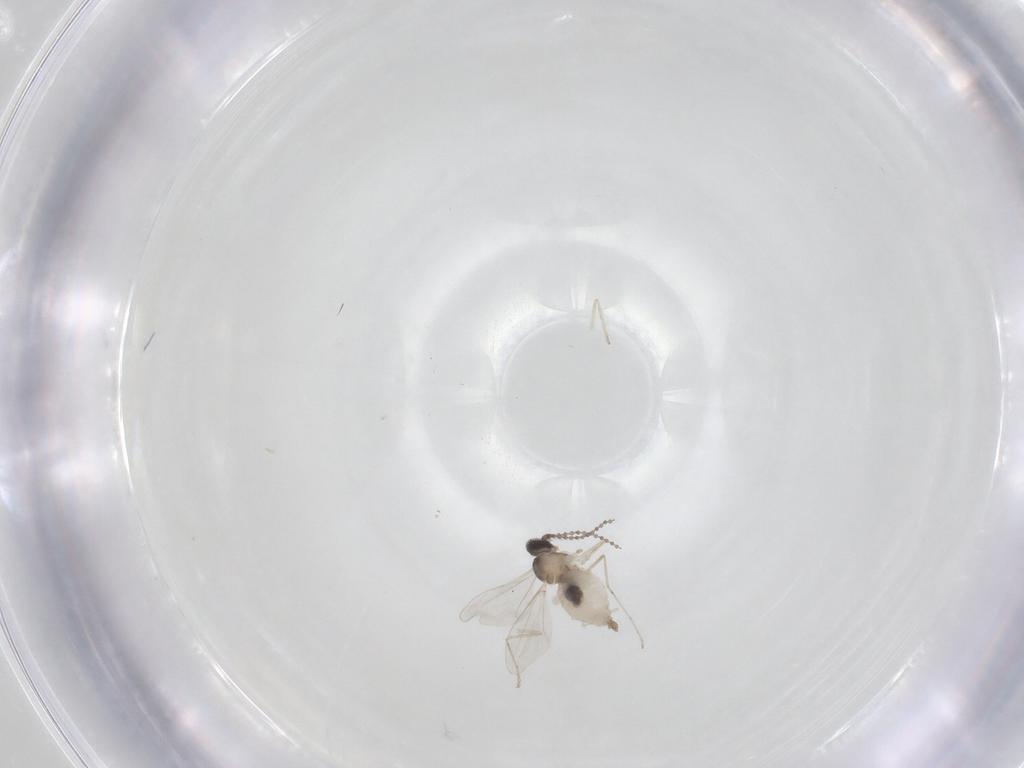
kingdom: Animalia
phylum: Arthropoda
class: Insecta
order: Diptera
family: Cecidomyiidae
